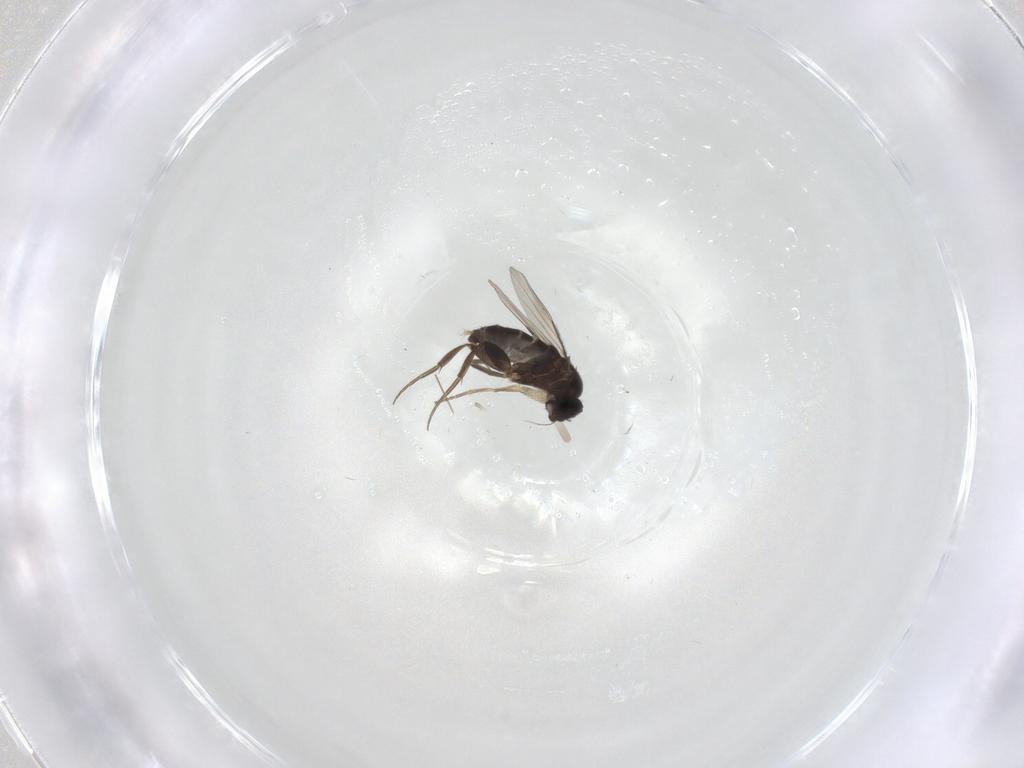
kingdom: Animalia
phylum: Arthropoda
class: Insecta
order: Diptera
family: Phoridae
